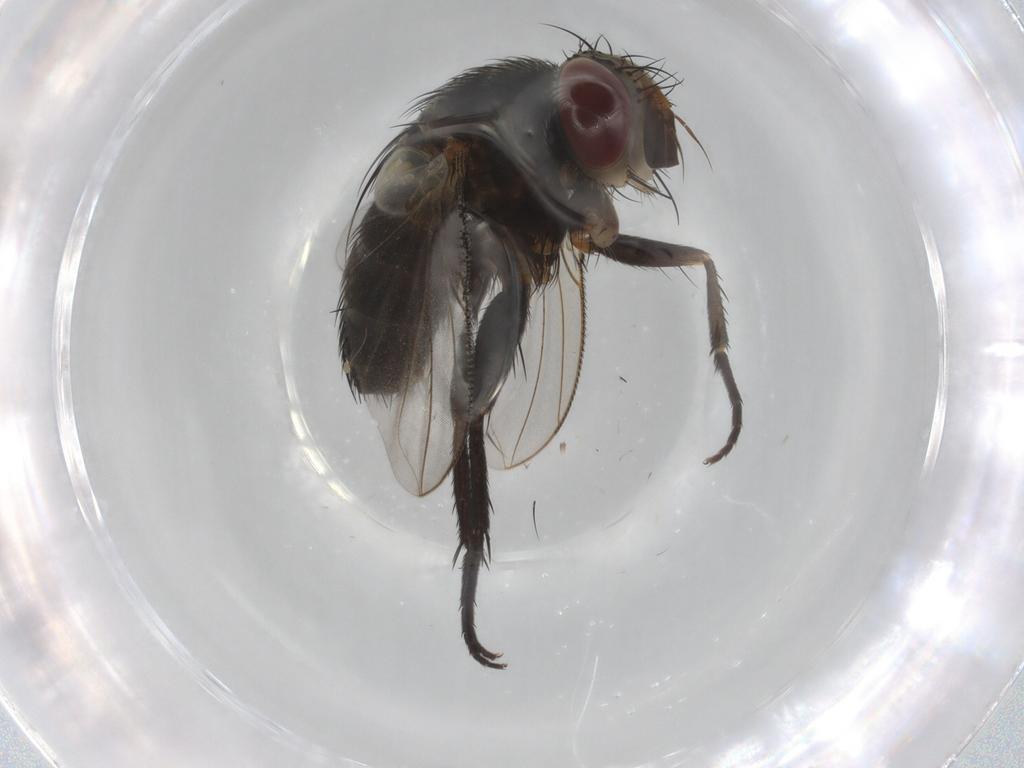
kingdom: Animalia
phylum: Arthropoda
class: Insecta
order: Diptera
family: Tachinidae
